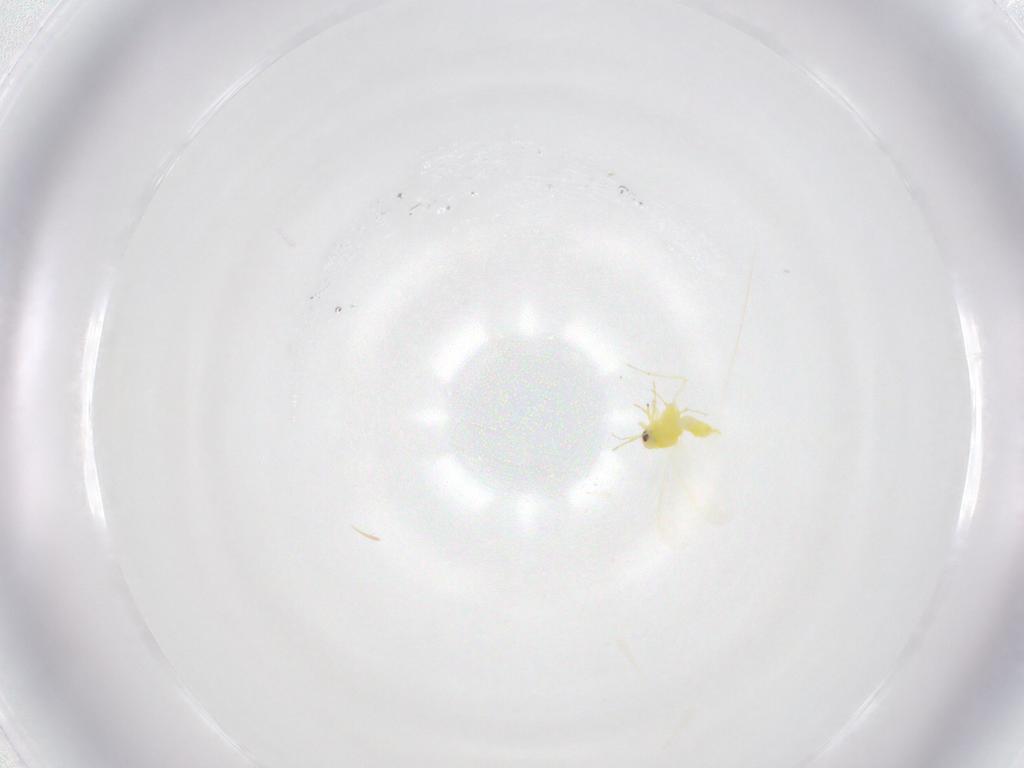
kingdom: Animalia
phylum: Arthropoda
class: Insecta
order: Hemiptera
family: Aleyrodidae
